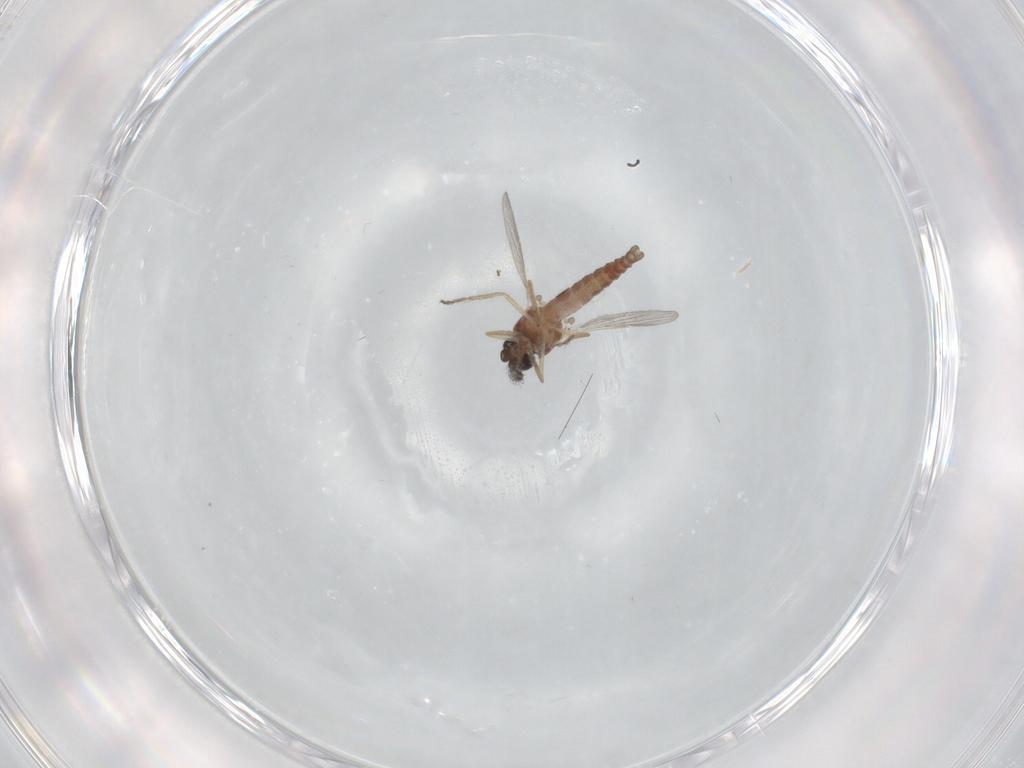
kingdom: Animalia
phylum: Arthropoda
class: Insecta
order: Diptera
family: Ceratopogonidae
